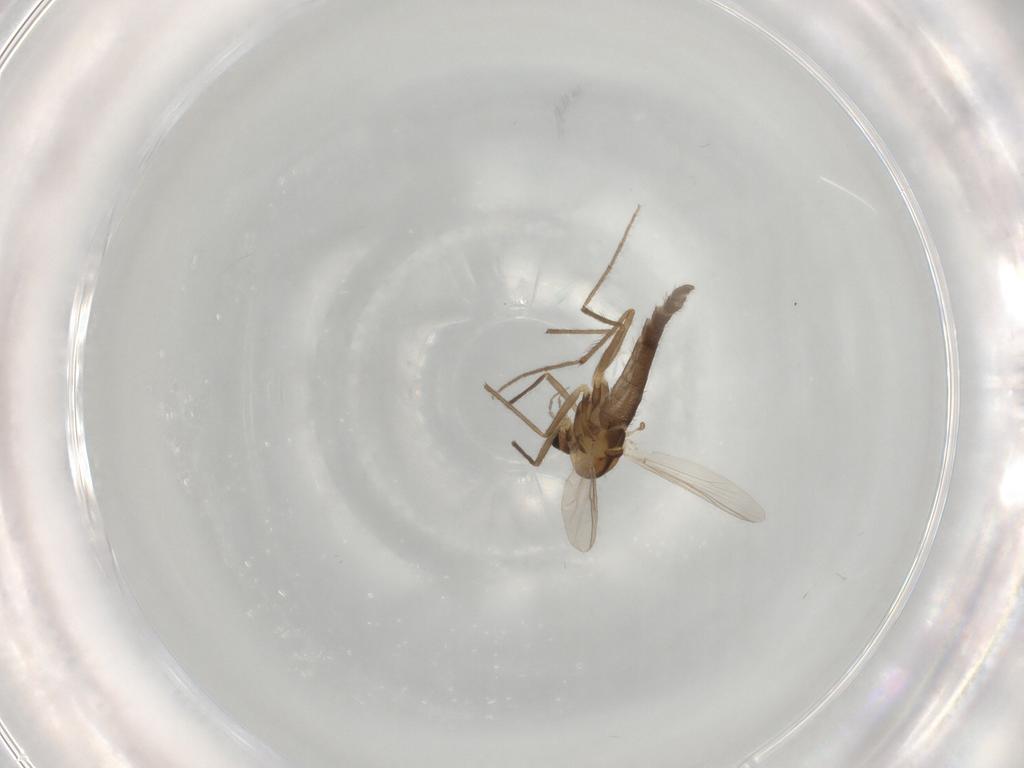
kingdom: Animalia
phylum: Arthropoda
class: Insecta
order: Diptera
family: Chironomidae
